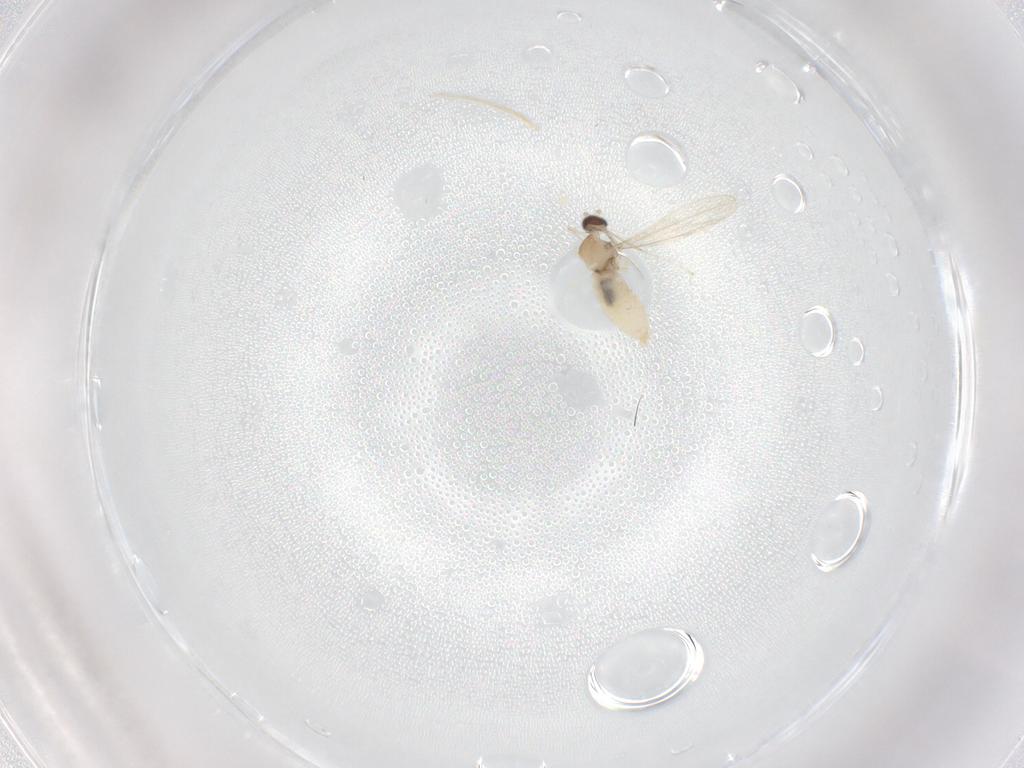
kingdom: Animalia
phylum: Arthropoda
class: Insecta
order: Diptera
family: Cecidomyiidae
